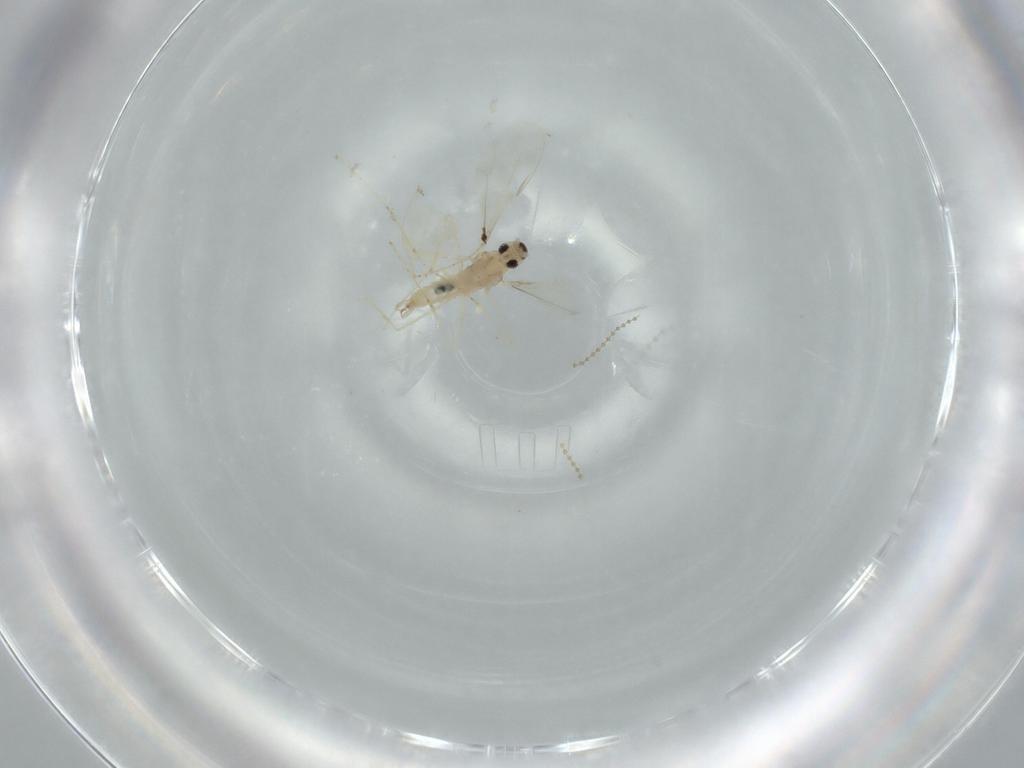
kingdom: Animalia
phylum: Arthropoda
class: Insecta
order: Diptera
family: Cecidomyiidae
